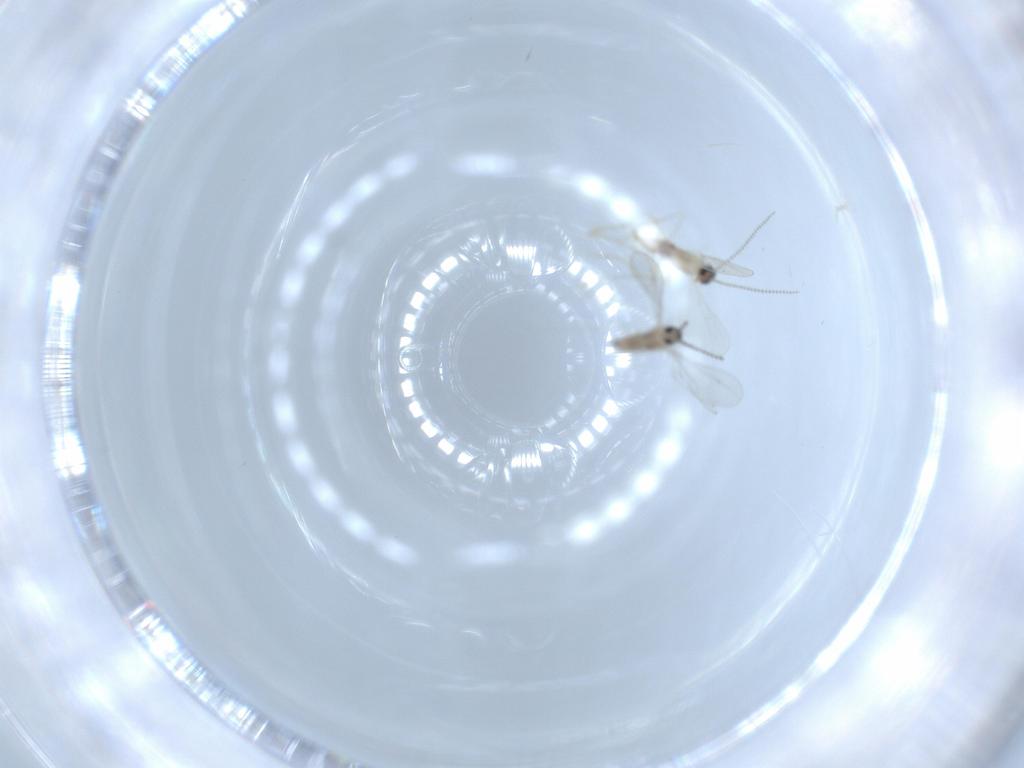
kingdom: Animalia
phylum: Arthropoda
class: Insecta
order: Diptera
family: Cecidomyiidae
